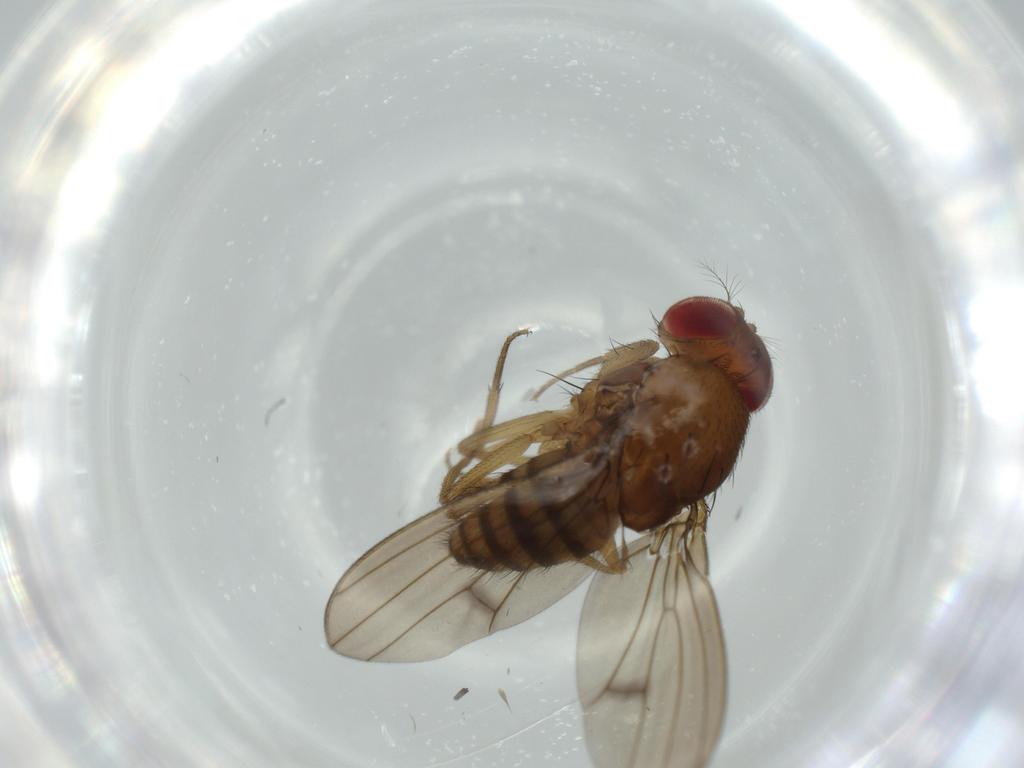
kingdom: Animalia
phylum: Arthropoda
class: Insecta
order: Diptera
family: Drosophilidae
